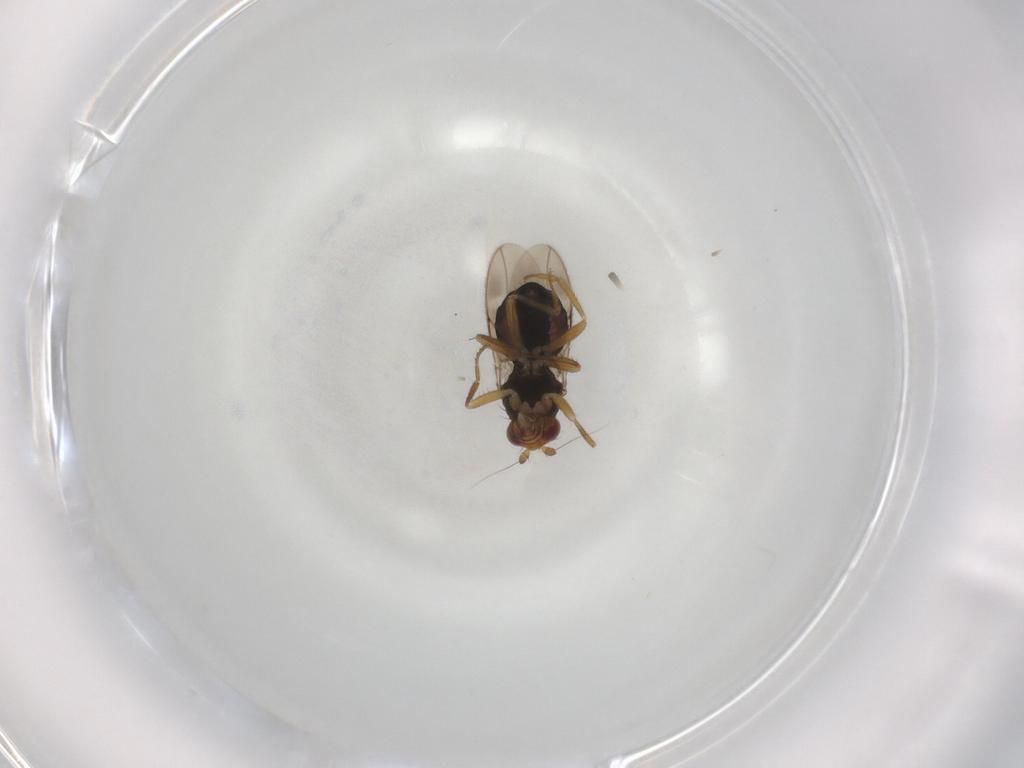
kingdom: Animalia
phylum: Arthropoda
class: Insecta
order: Diptera
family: Sphaeroceridae
